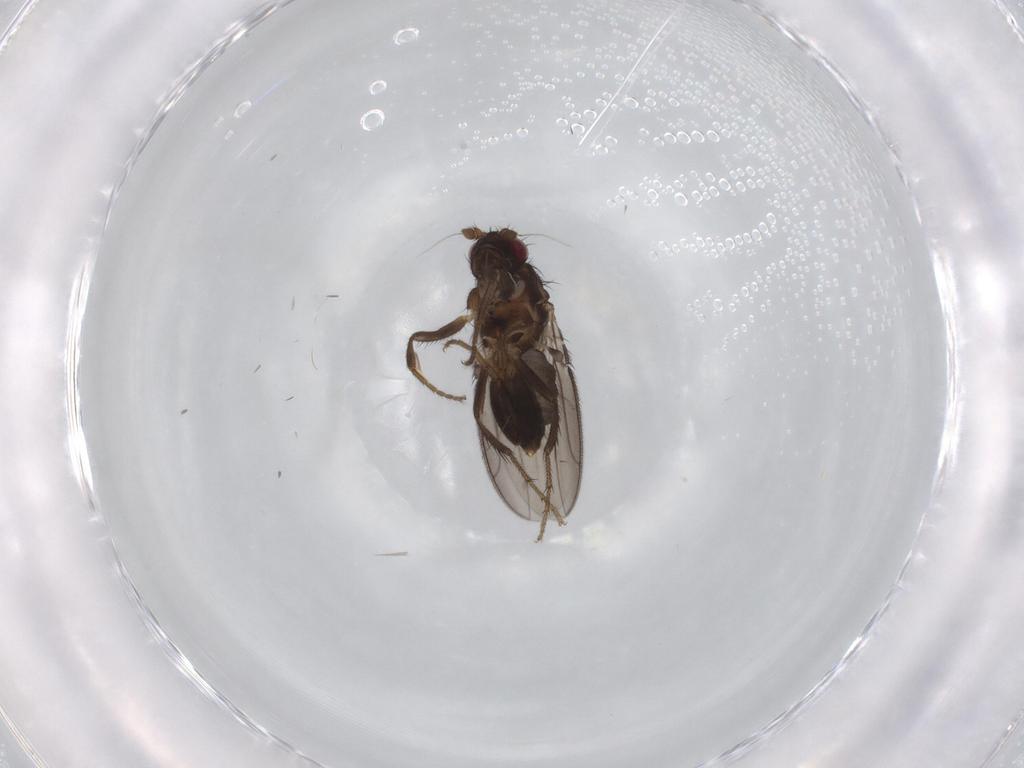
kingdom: Animalia
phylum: Arthropoda
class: Insecta
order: Diptera
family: Sphaeroceridae
